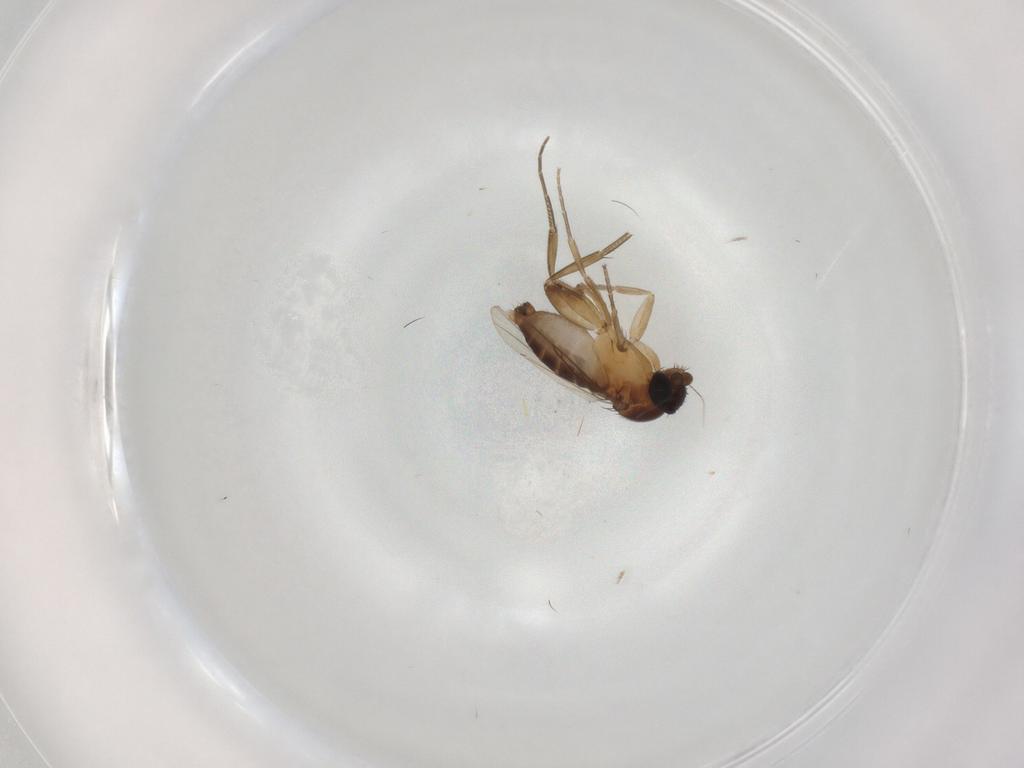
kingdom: Animalia
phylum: Arthropoda
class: Insecta
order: Diptera
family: Phoridae
